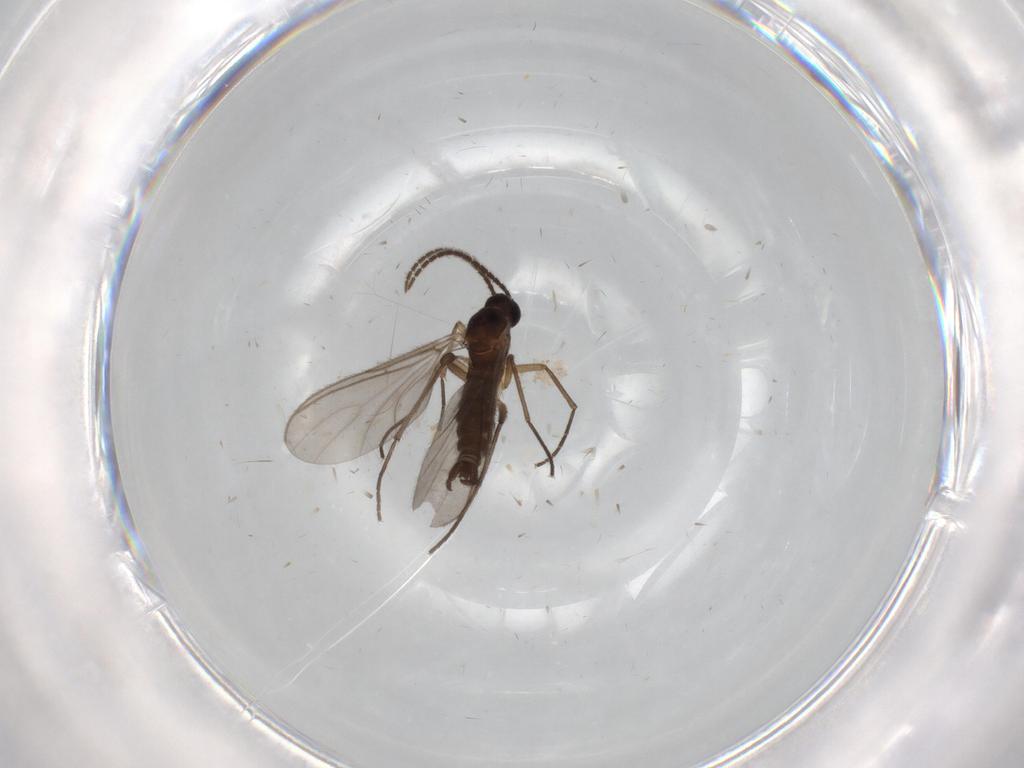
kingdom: Animalia
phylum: Arthropoda
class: Insecta
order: Diptera
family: Sciaridae
